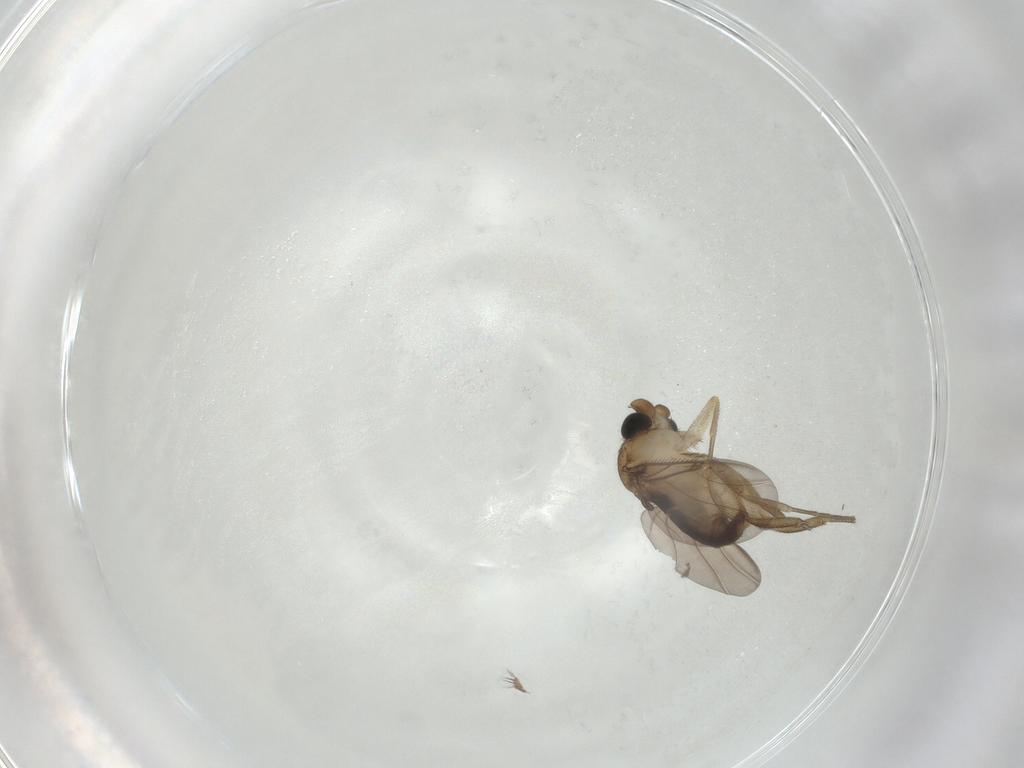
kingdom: Animalia
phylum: Arthropoda
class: Insecta
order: Diptera
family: Phoridae
